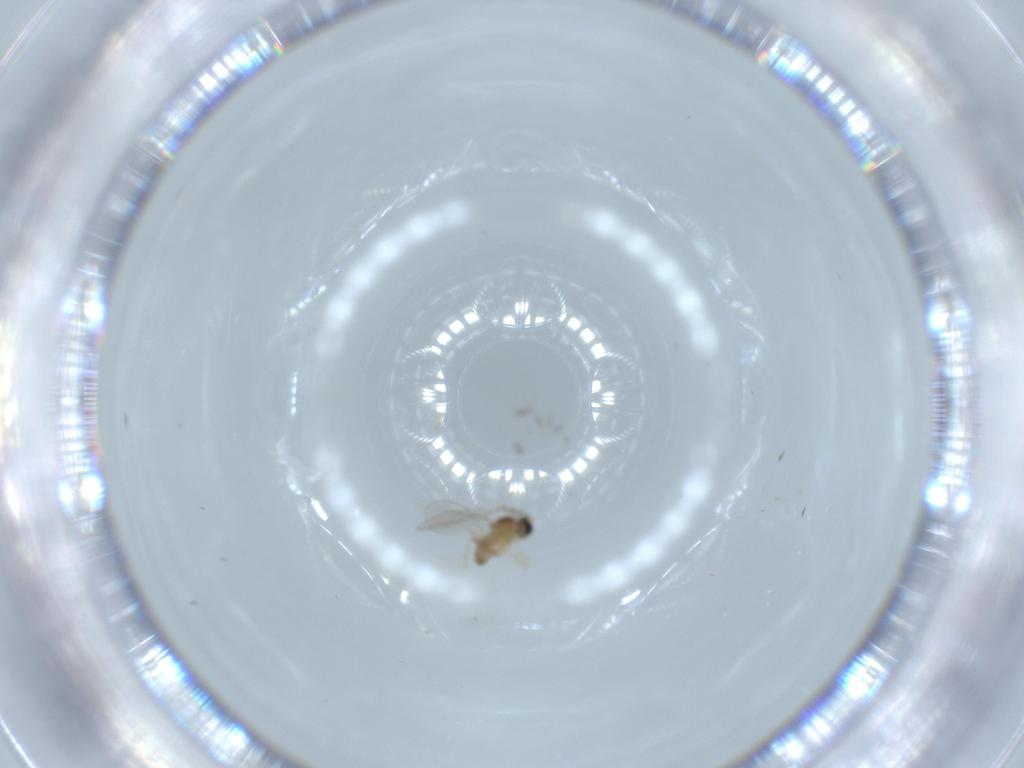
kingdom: Animalia
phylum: Arthropoda
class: Insecta
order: Diptera
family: Cecidomyiidae
